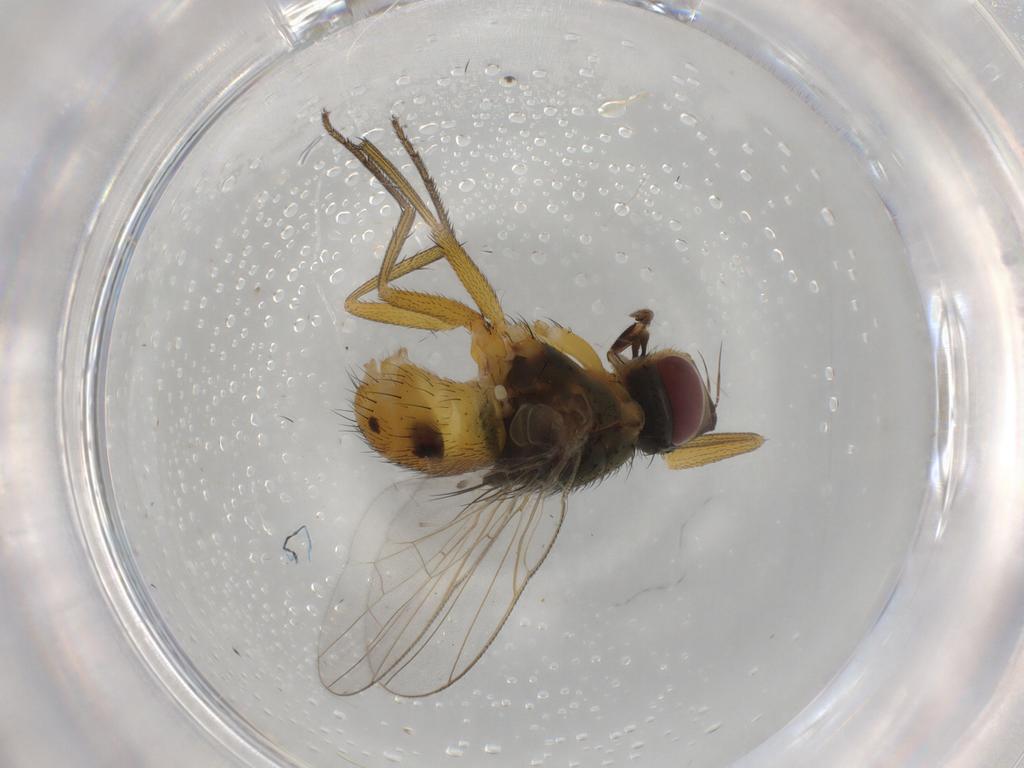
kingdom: Animalia
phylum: Arthropoda
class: Insecta
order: Diptera
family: Muscidae
